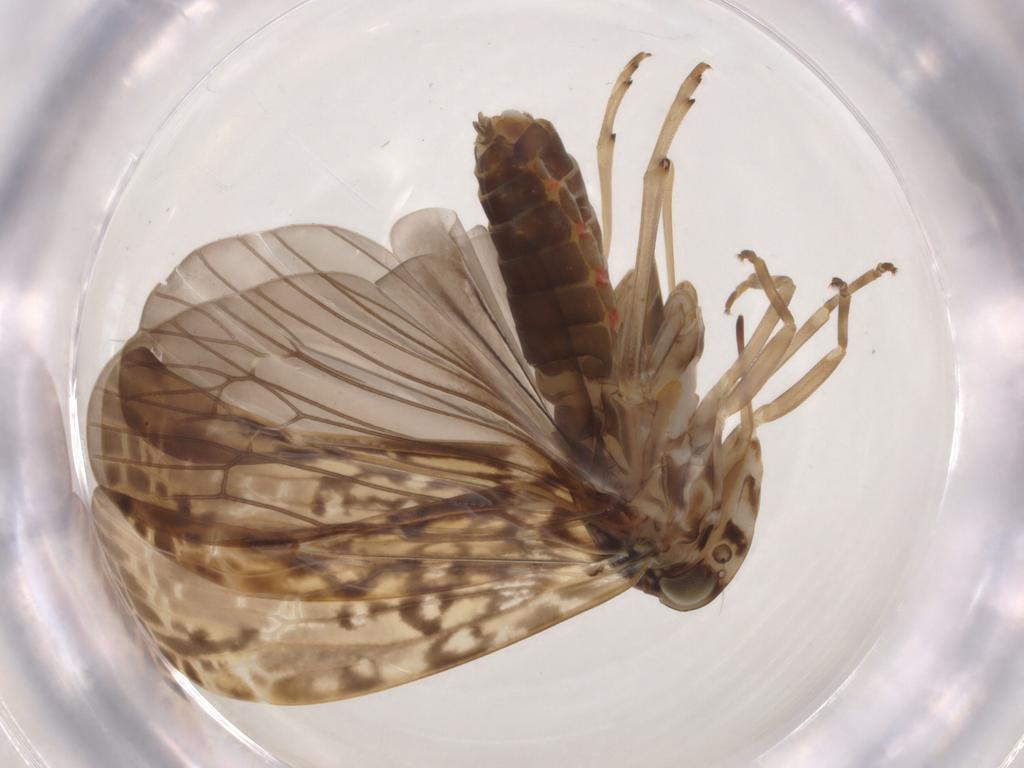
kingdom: Animalia
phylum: Arthropoda
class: Insecta
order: Hemiptera
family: Achilidae
